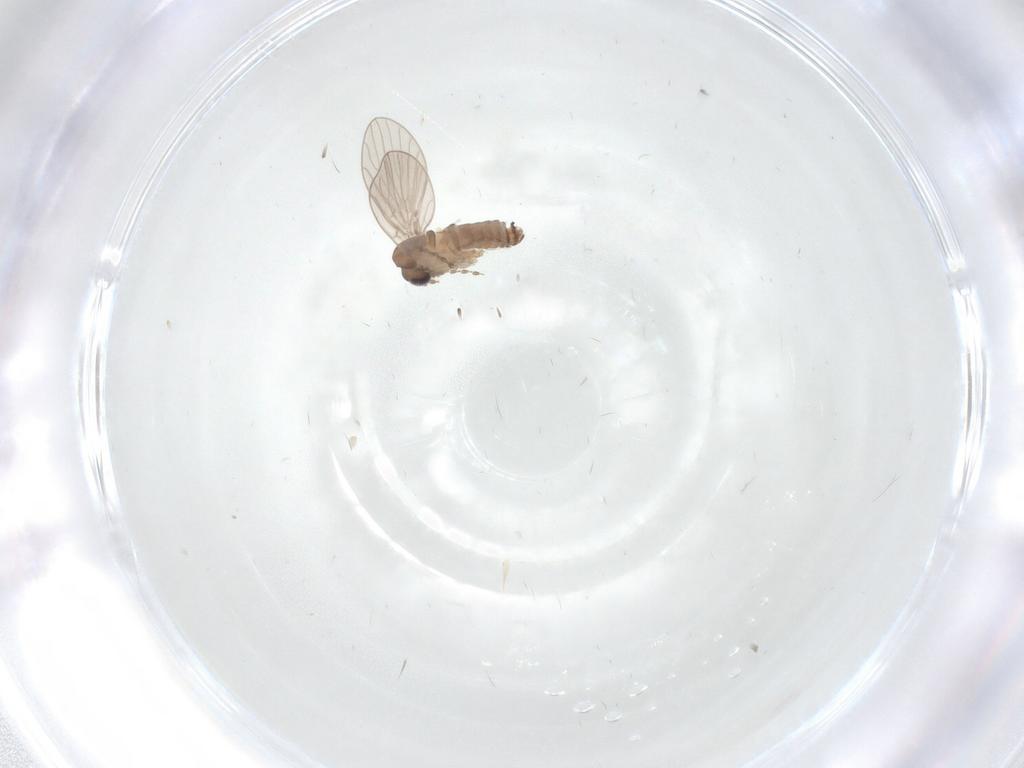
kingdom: Animalia
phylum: Arthropoda
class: Insecta
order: Diptera
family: Psychodidae
